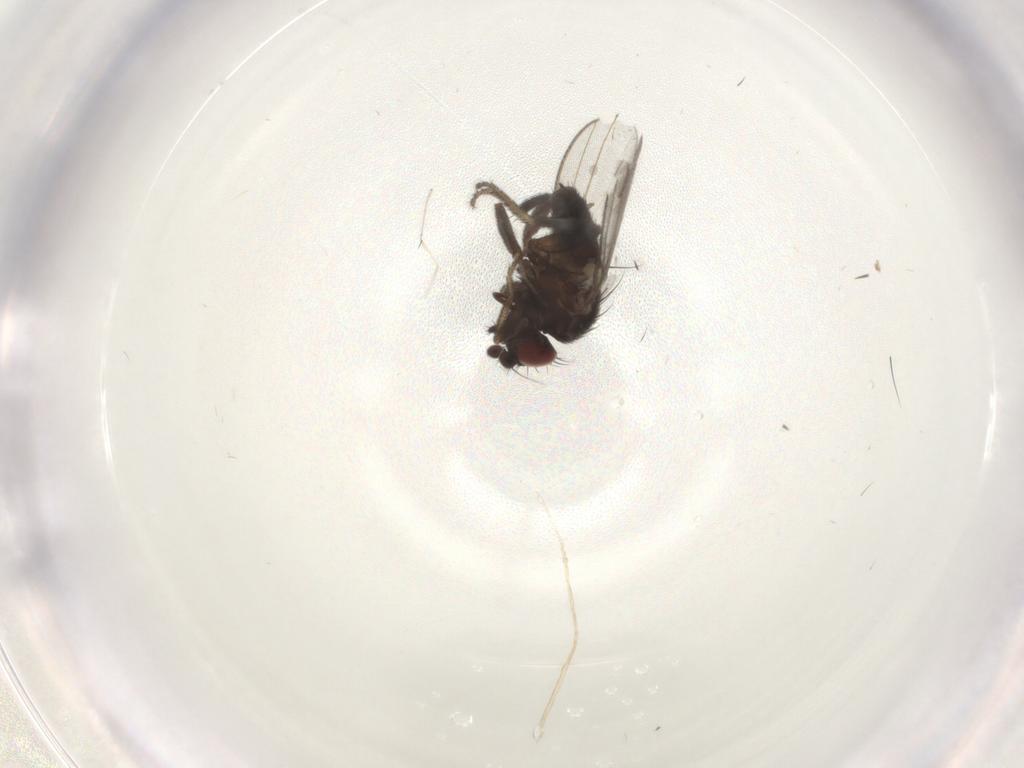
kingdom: Animalia
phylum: Arthropoda
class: Insecta
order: Diptera
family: Milichiidae
